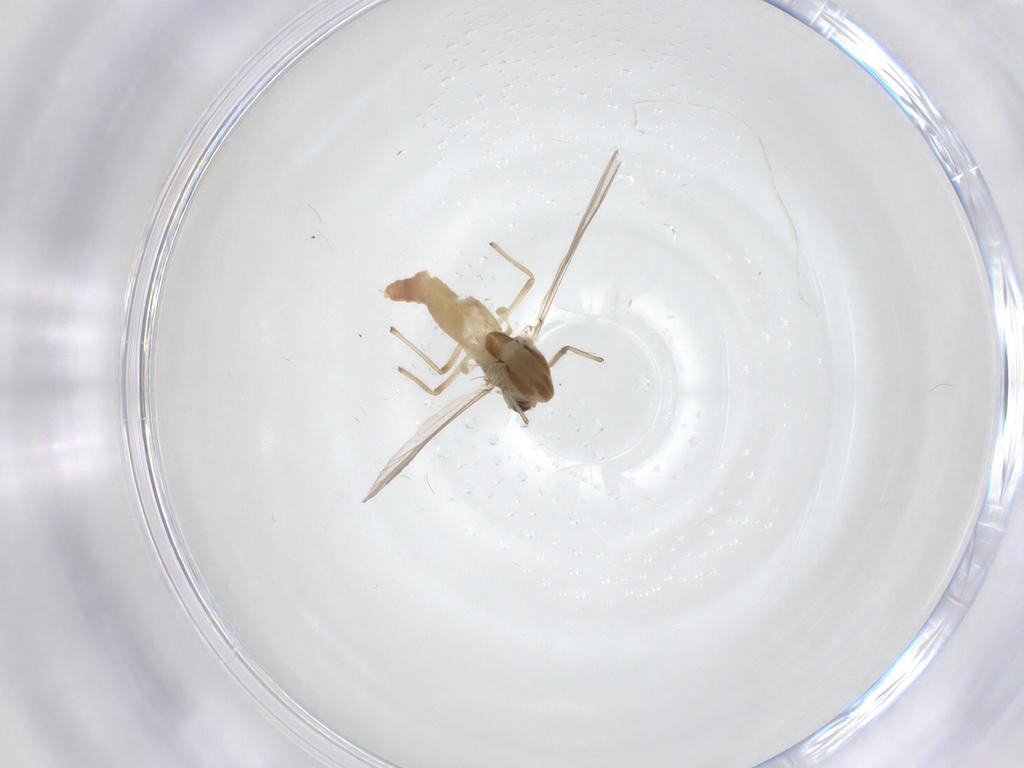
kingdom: Animalia
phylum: Arthropoda
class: Insecta
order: Diptera
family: Chironomidae
